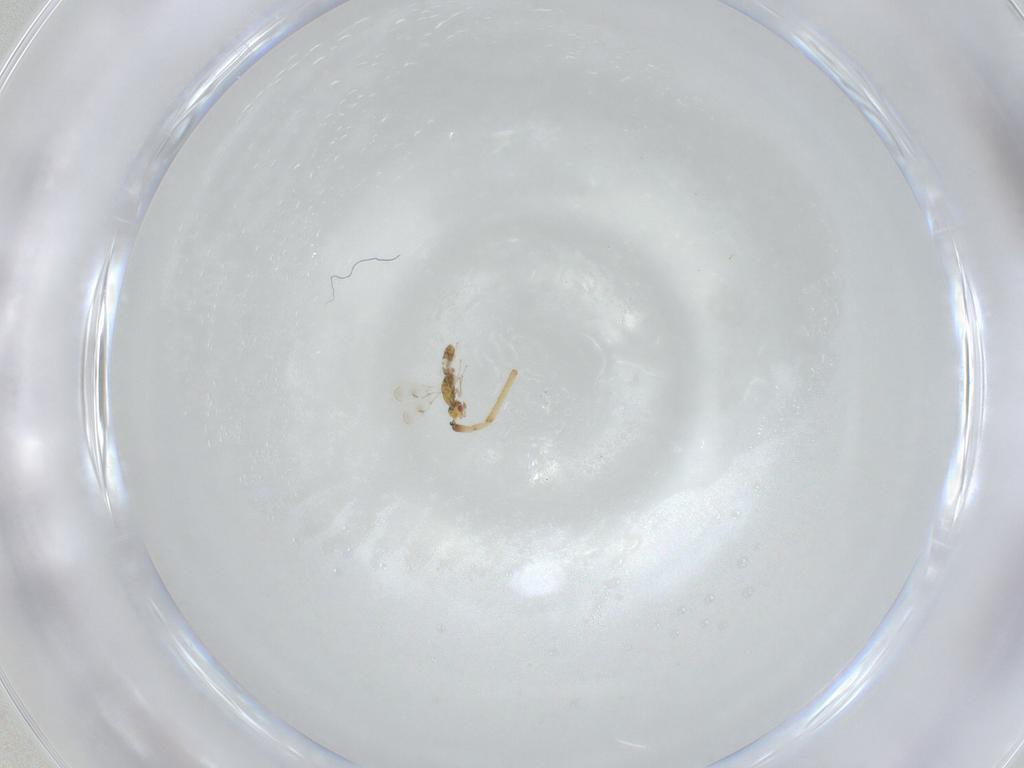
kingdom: Animalia
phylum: Arthropoda
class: Insecta
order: Hymenoptera
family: Eulophidae
